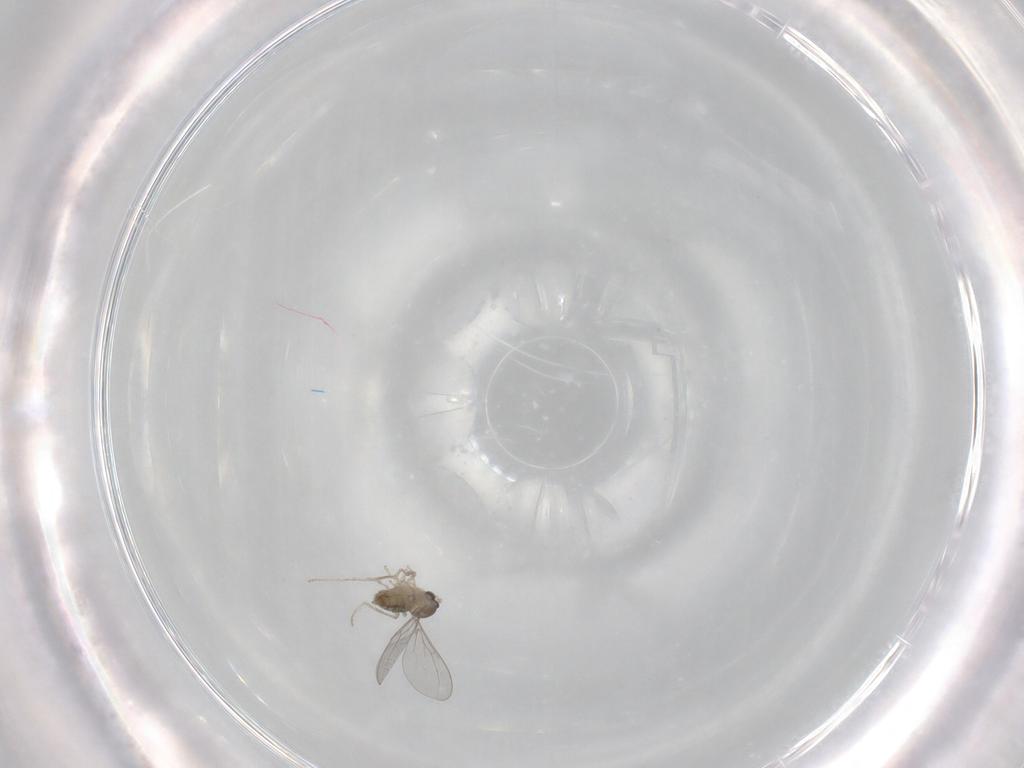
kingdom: Animalia
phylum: Arthropoda
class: Insecta
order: Diptera
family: Cecidomyiidae
